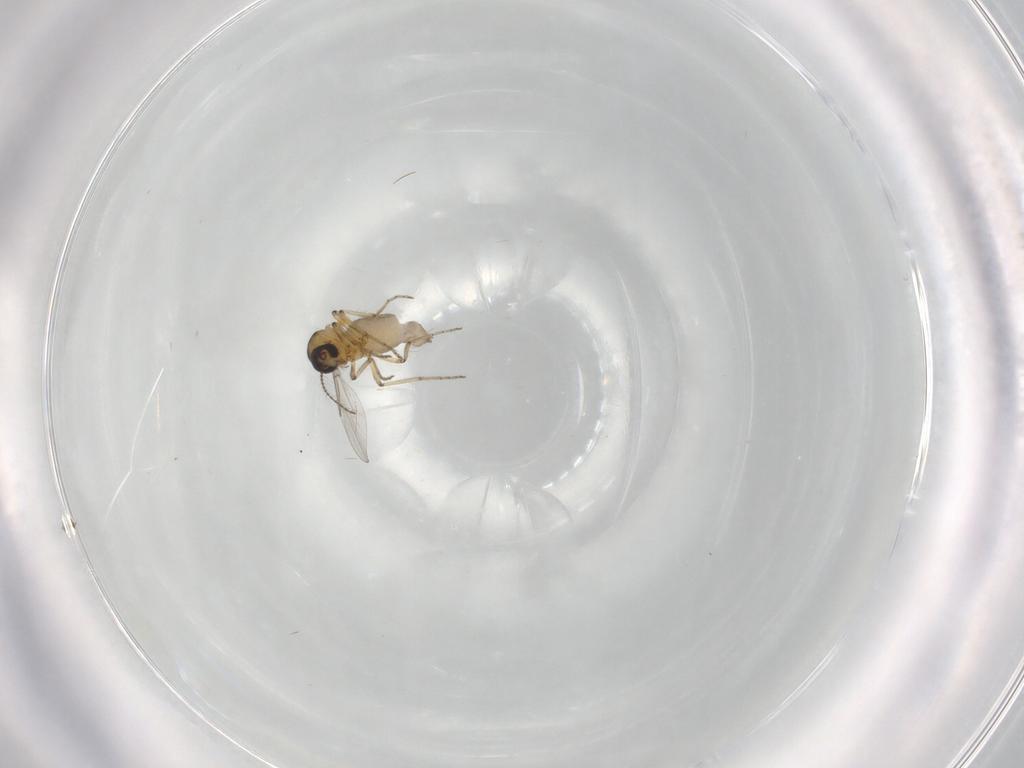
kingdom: Animalia
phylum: Arthropoda
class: Insecta
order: Diptera
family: Ceratopogonidae
